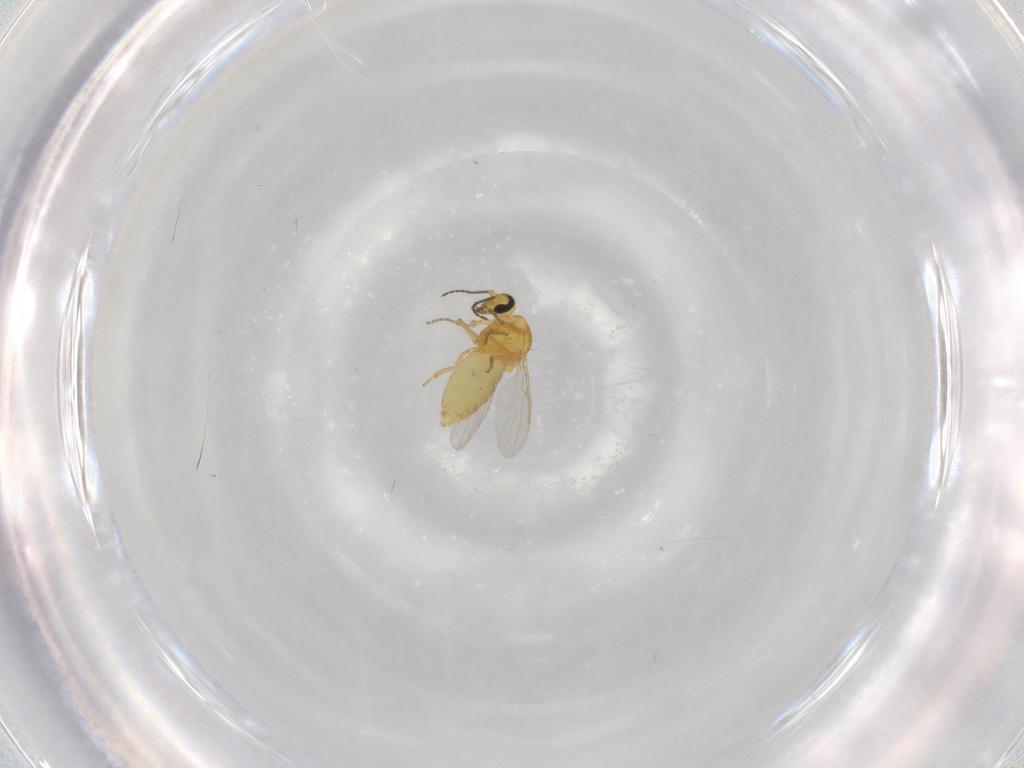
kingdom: Animalia
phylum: Arthropoda
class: Insecta
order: Diptera
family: Ceratopogonidae
